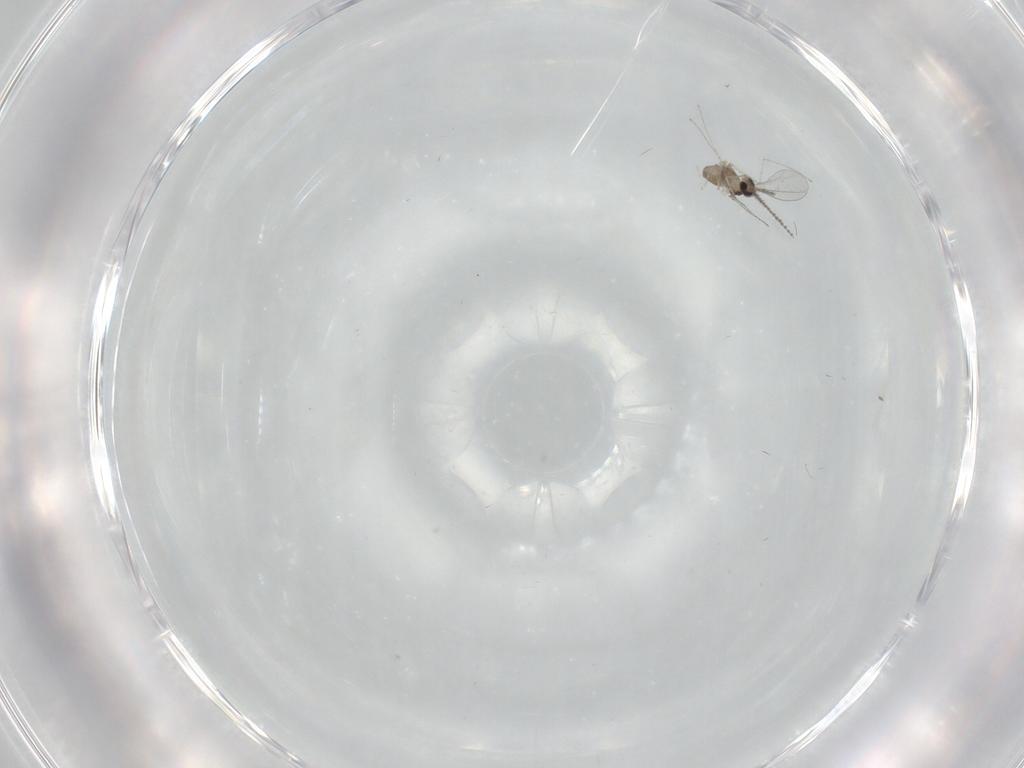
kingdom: Animalia
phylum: Arthropoda
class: Insecta
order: Diptera
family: Cecidomyiidae
